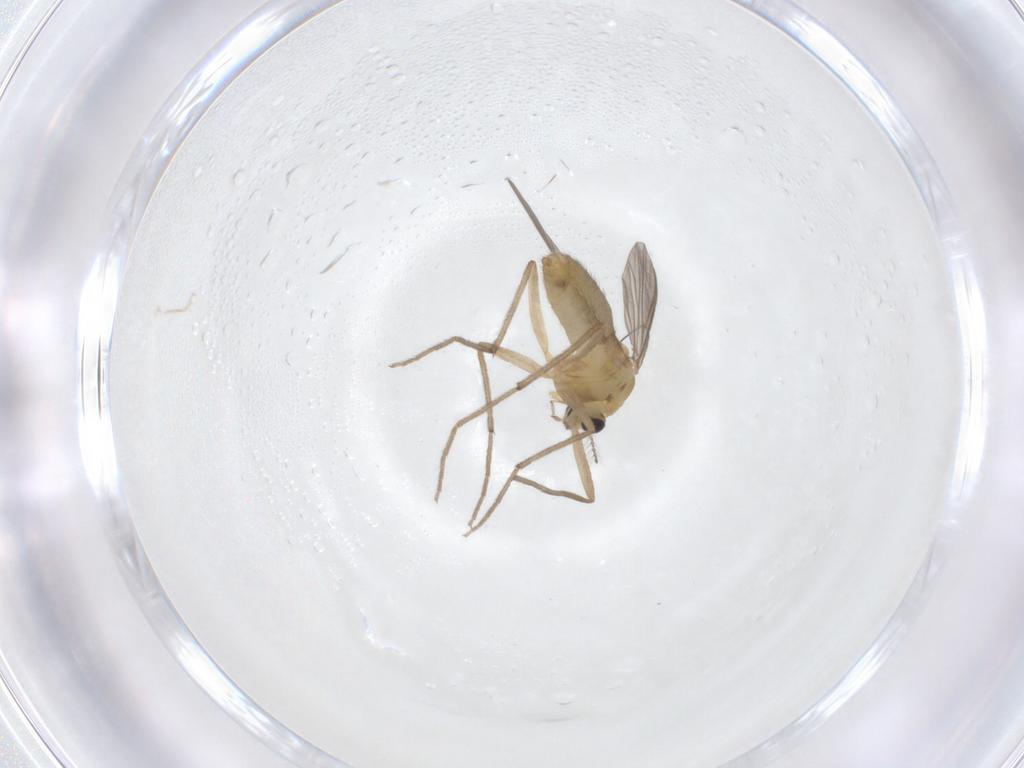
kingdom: Animalia
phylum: Arthropoda
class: Insecta
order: Diptera
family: Chironomidae
